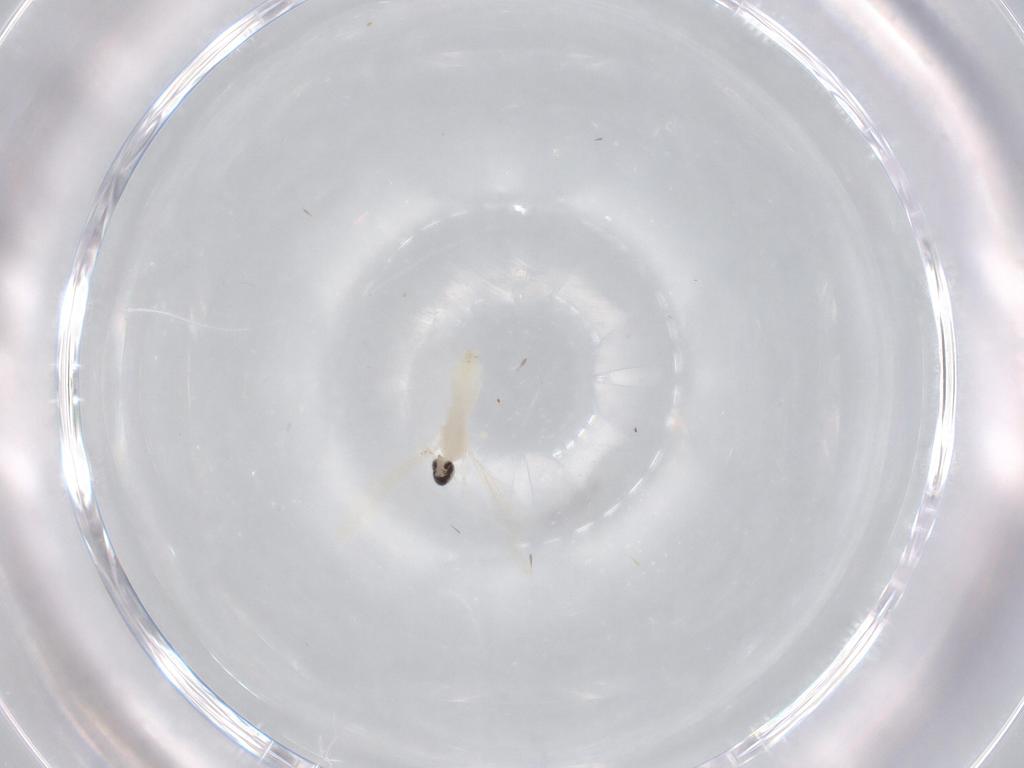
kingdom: Animalia
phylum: Arthropoda
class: Insecta
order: Diptera
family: Cecidomyiidae
